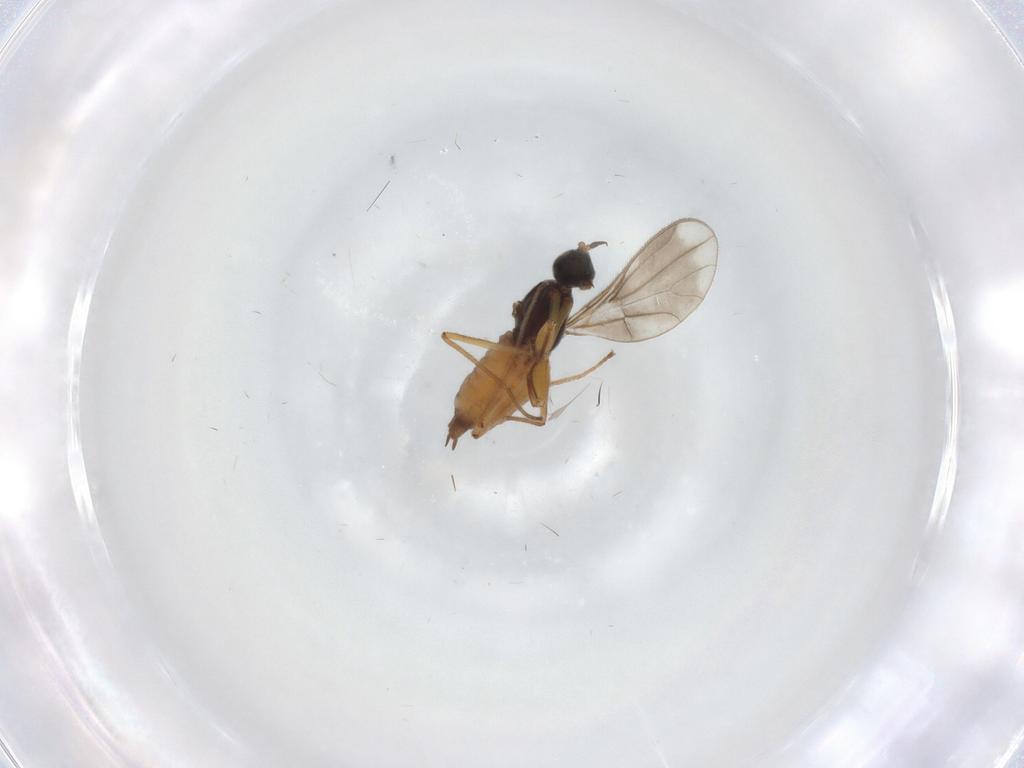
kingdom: Animalia
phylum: Arthropoda
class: Insecta
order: Diptera
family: Empididae
